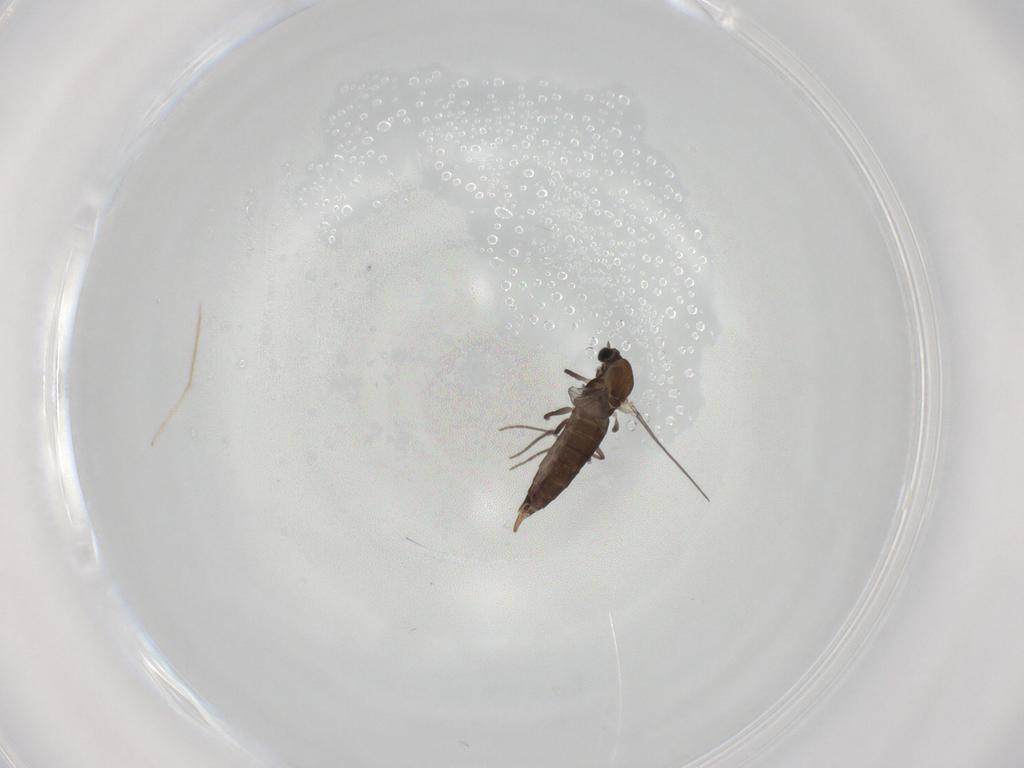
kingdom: Animalia
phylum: Arthropoda
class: Insecta
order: Diptera
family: Chironomidae
